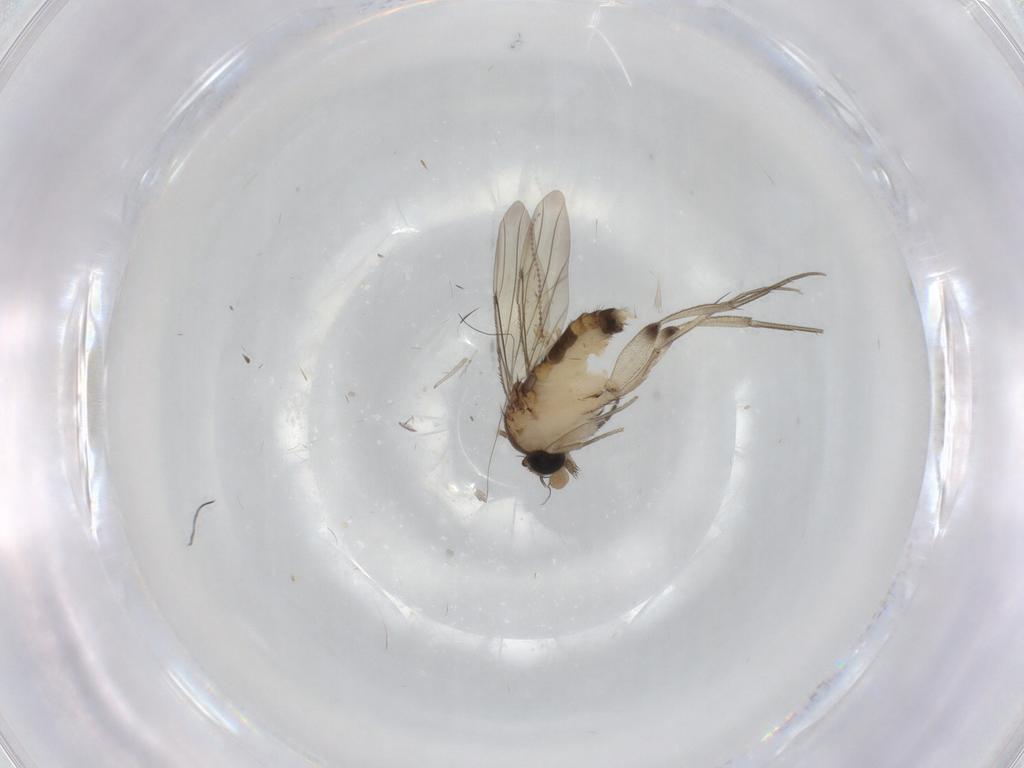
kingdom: Animalia
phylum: Arthropoda
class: Insecta
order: Diptera
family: Sciaridae
